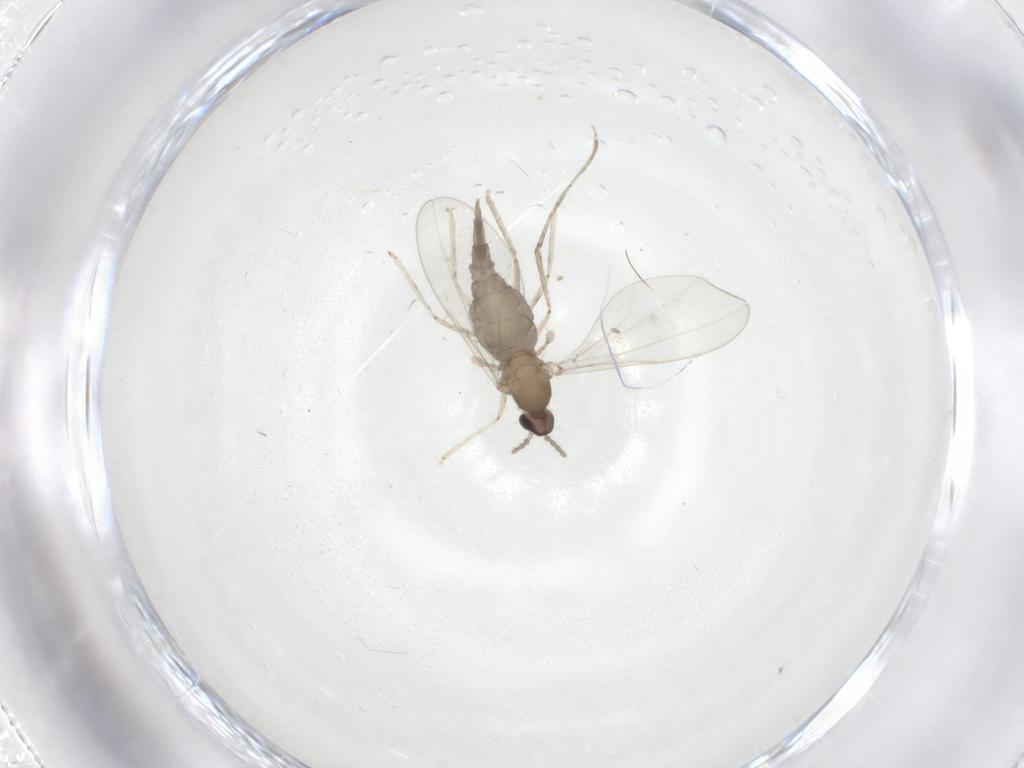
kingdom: Animalia
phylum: Arthropoda
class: Insecta
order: Diptera
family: Cecidomyiidae
